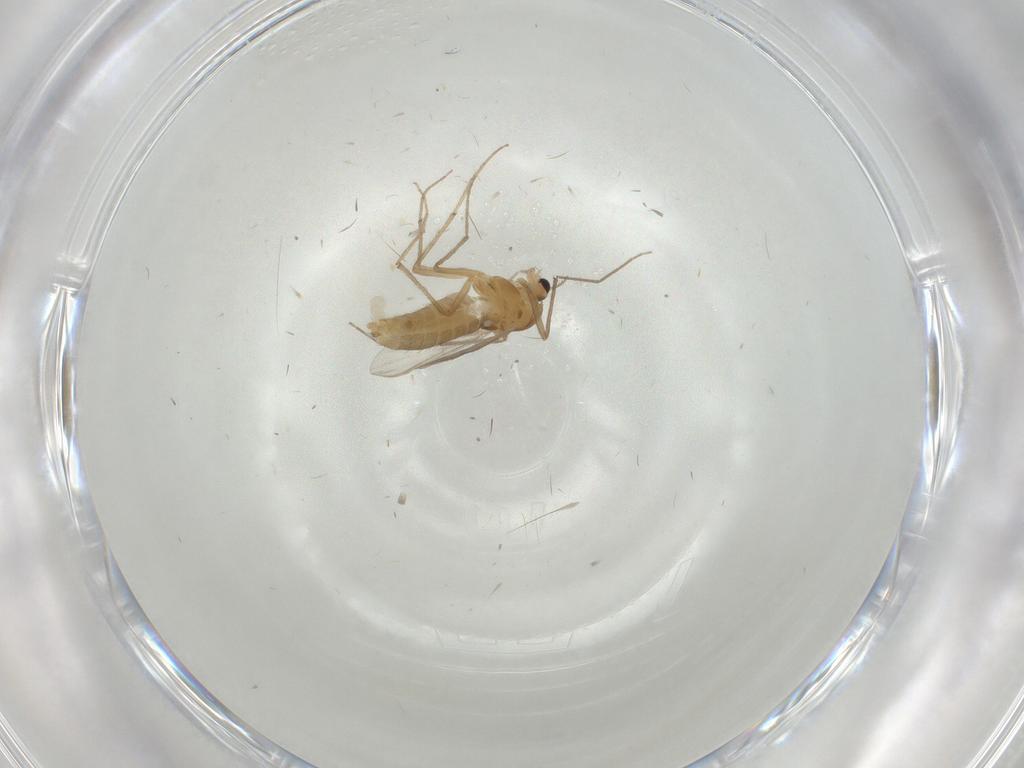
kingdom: Animalia
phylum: Arthropoda
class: Insecta
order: Diptera
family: Chironomidae
